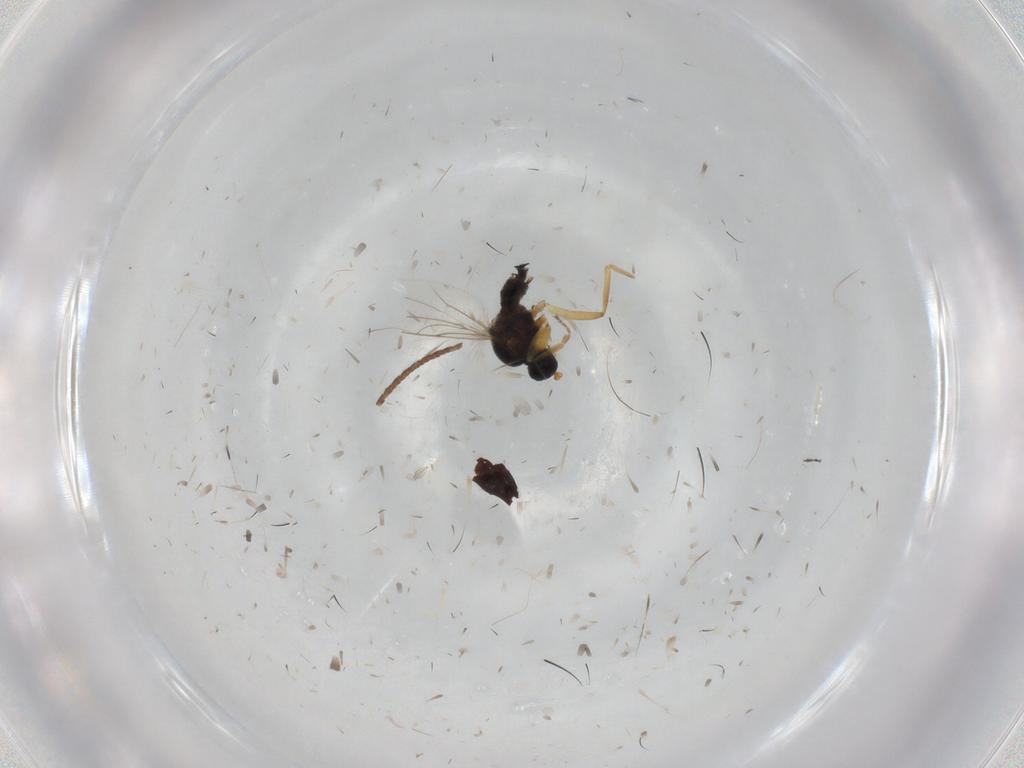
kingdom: Animalia
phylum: Arthropoda
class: Insecta
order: Diptera
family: Hybotidae
